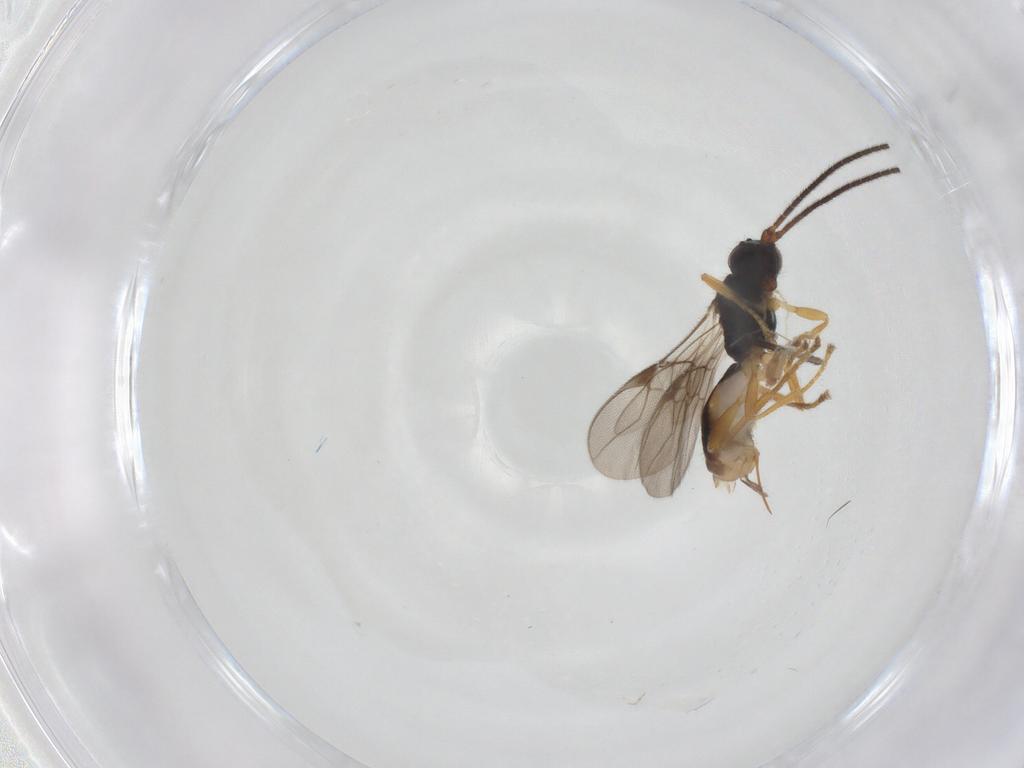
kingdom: Animalia
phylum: Arthropoda
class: Insecta
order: Hymenoptera
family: Braconidae
